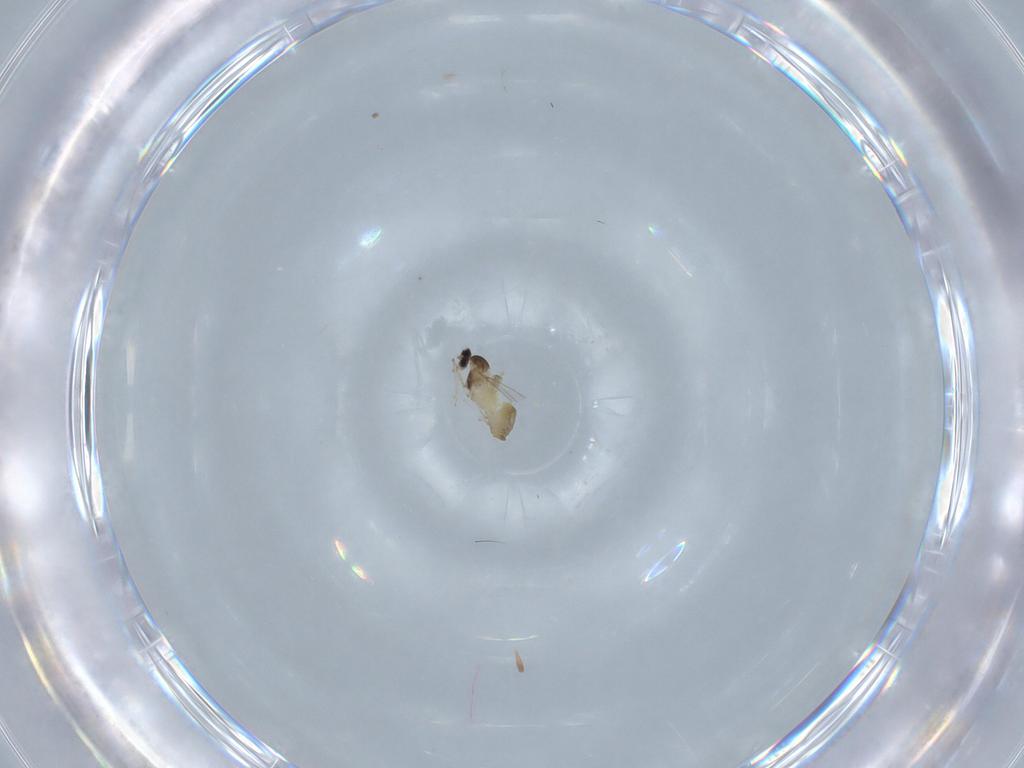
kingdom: Animalia
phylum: Arthropoda
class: Insecta
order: Diptera
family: Cecidomyiidae
